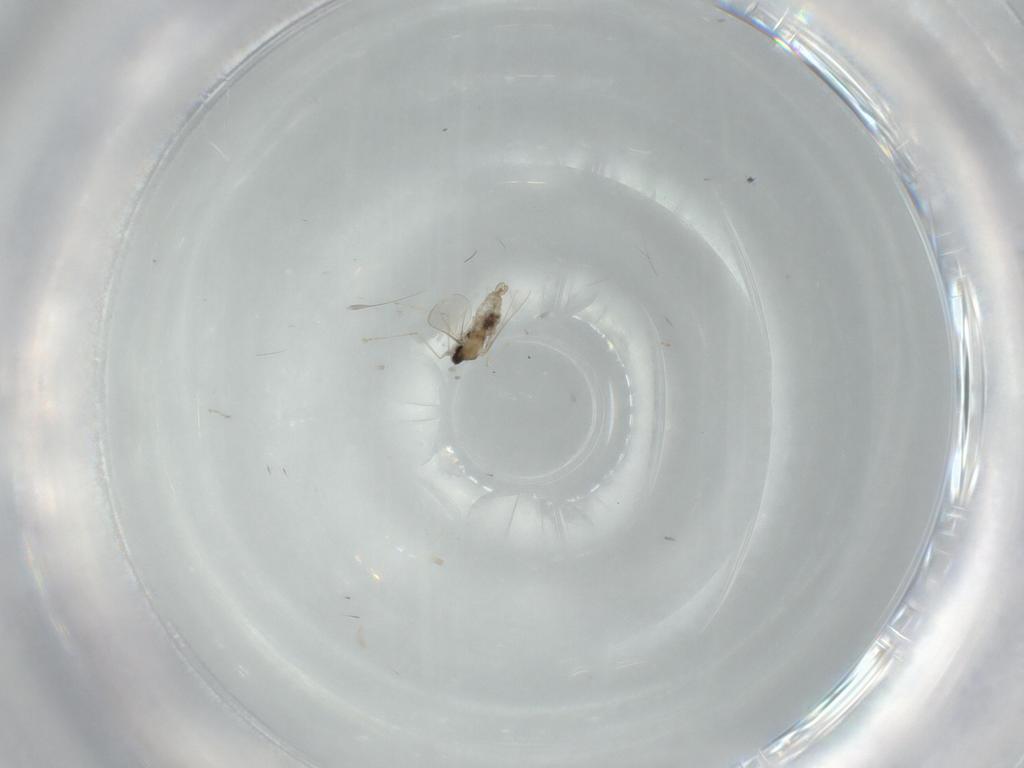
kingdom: Animalia
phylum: Arthropoda
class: Insecta
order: Diptera
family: Cecidomyiidae
